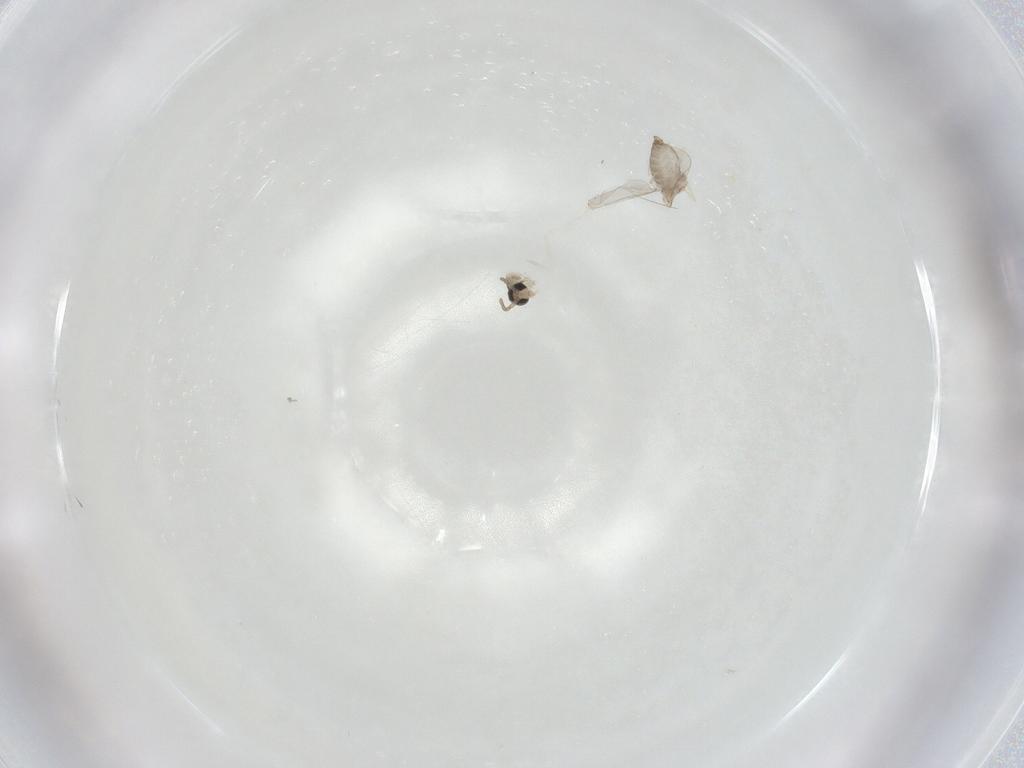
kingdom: Animalia
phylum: Arthropoda
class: Insecta
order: Diptera
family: Cecidomyiidae
